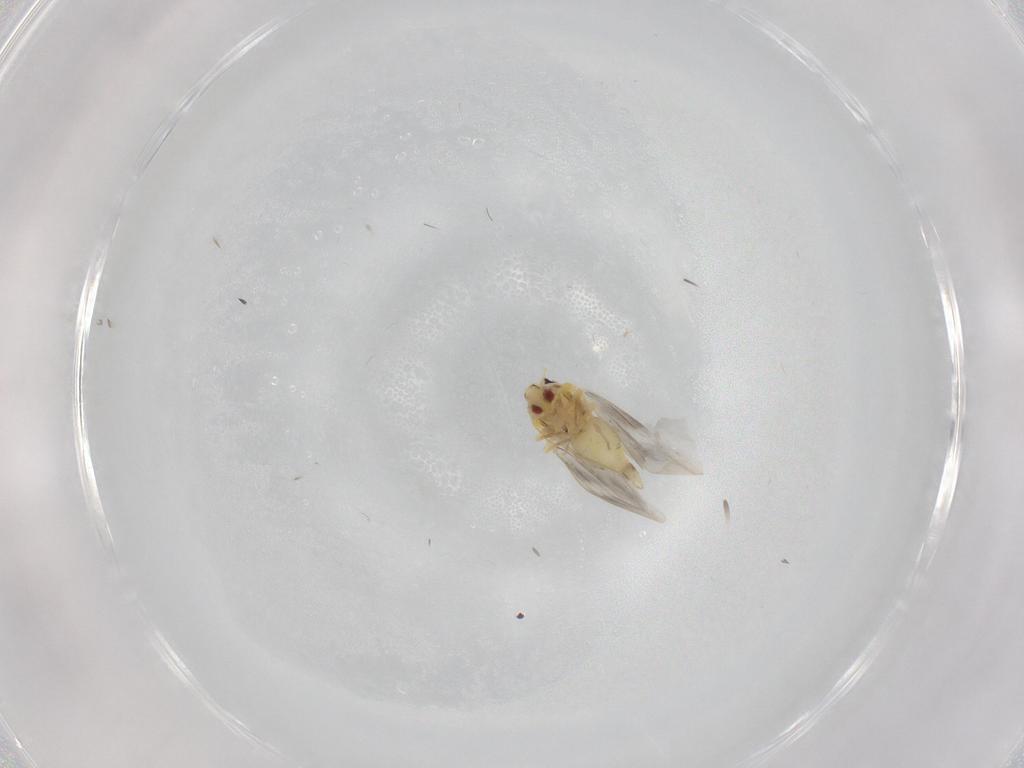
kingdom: Animalia
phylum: Arthropoda
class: Insecta
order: Hemiptera
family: Aleyrodidae
